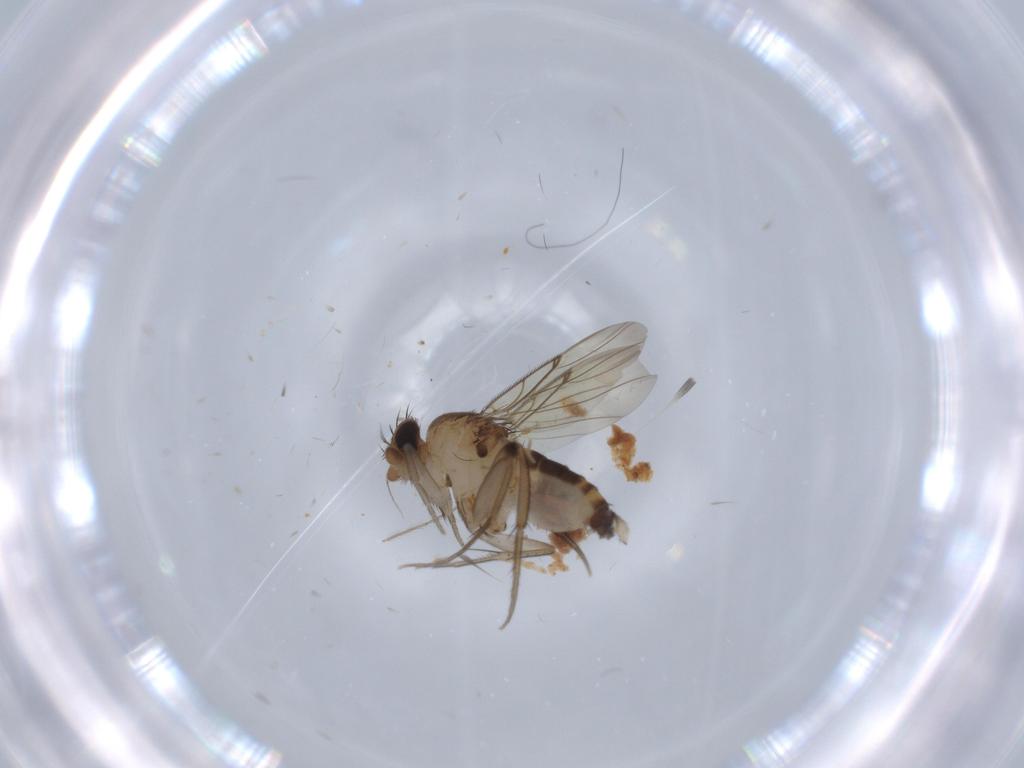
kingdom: Animalia
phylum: Arthropoda
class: Insecta
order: Diptera
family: Phoridae
